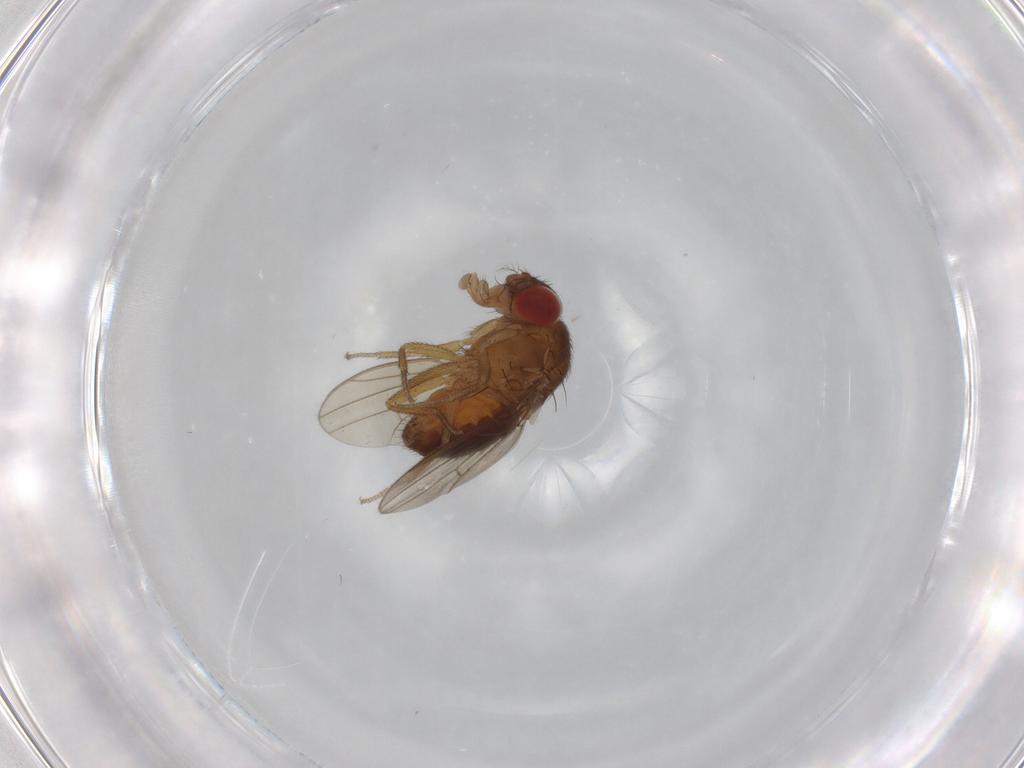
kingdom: Animalia
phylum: Arthropoda
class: Insecta
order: Diptera
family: Drosophilidae
